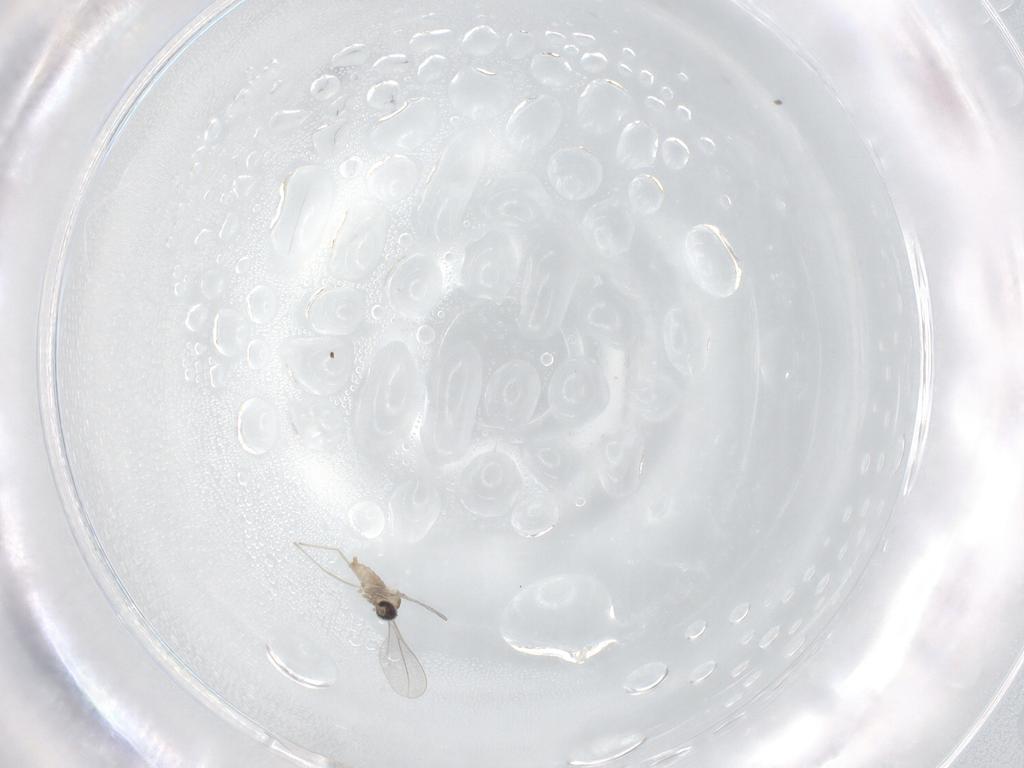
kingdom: Animalia
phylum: Arthropoda
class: Insecta
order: Diptera
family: Cecidomyiidae
